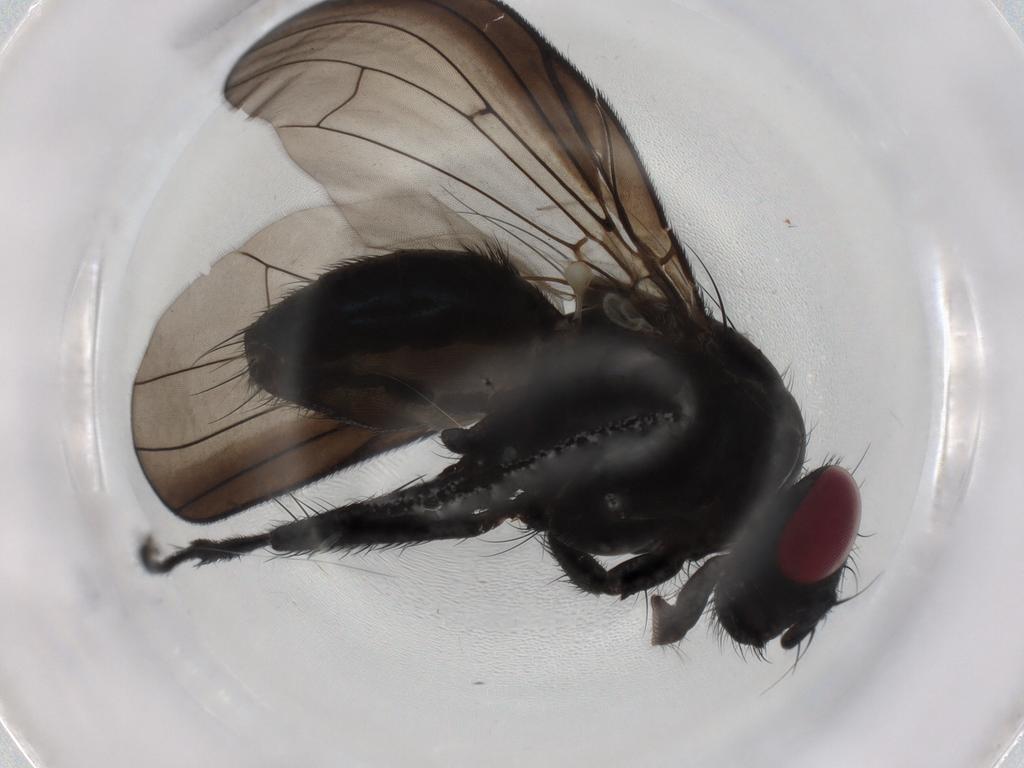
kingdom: Animalia
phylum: Arthropoda
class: Insecta
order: Diptera
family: Fannia
